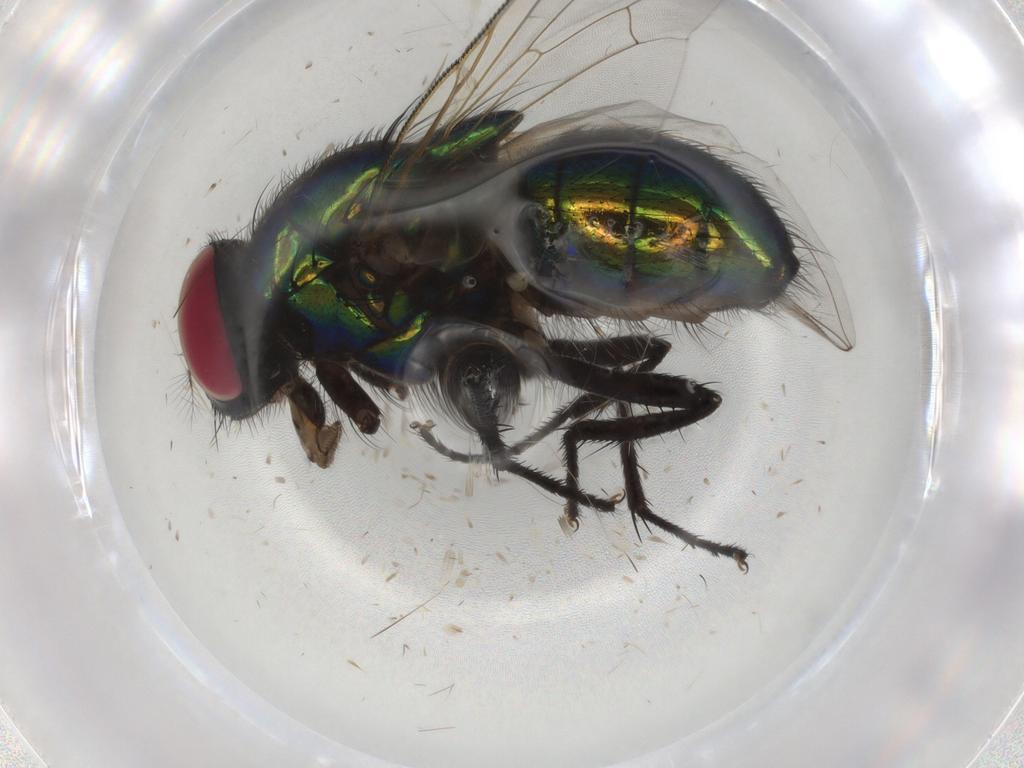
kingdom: Animalia
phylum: Arthropoda
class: Insecta
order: Diptera
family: Muscidae
